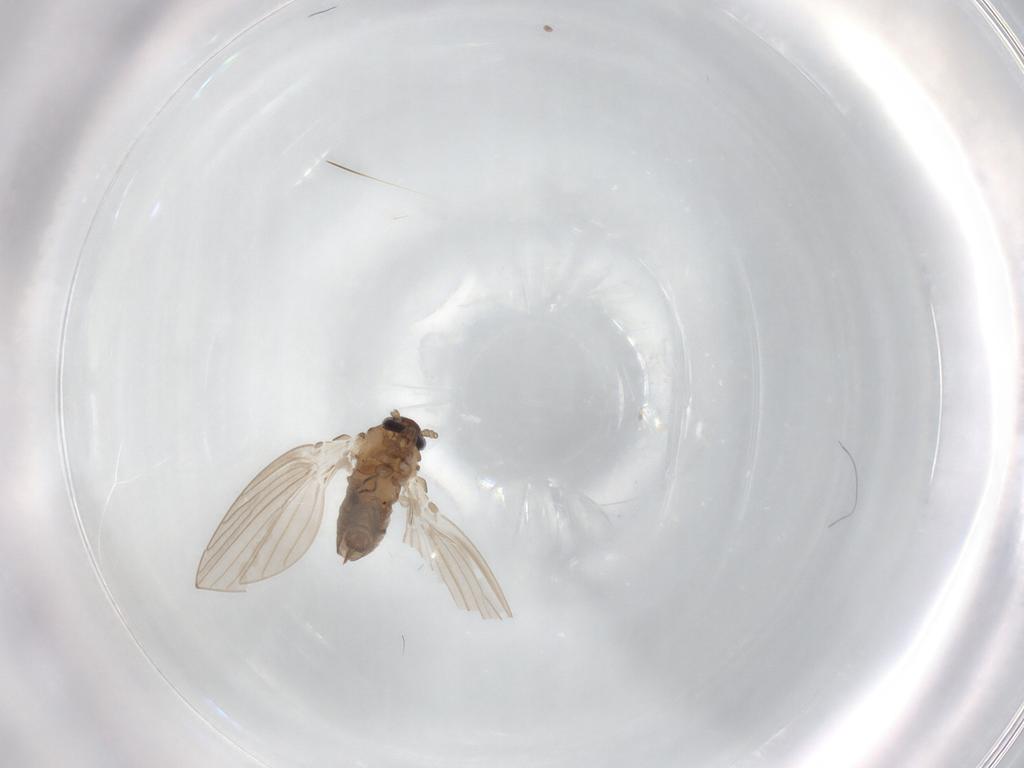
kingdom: Animalia
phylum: Arthropoda
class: Insecta
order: Diptera
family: Psychodidae
